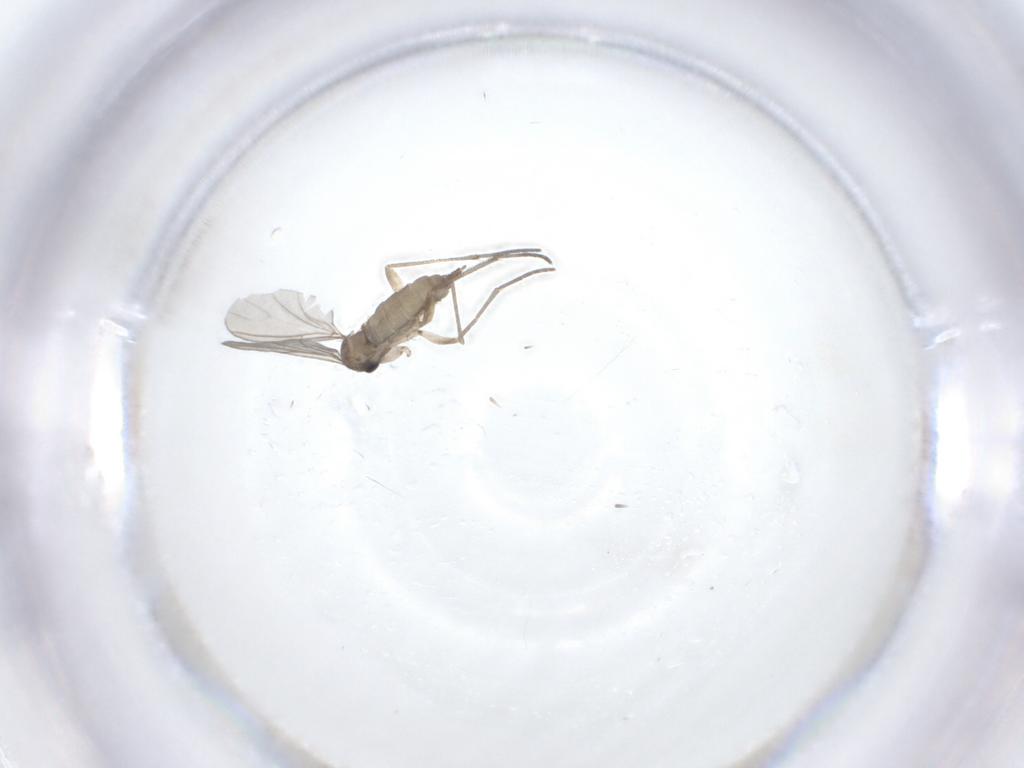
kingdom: Animalia
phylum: Arthropoda
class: Insecta
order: Diptera
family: Sciaridae
